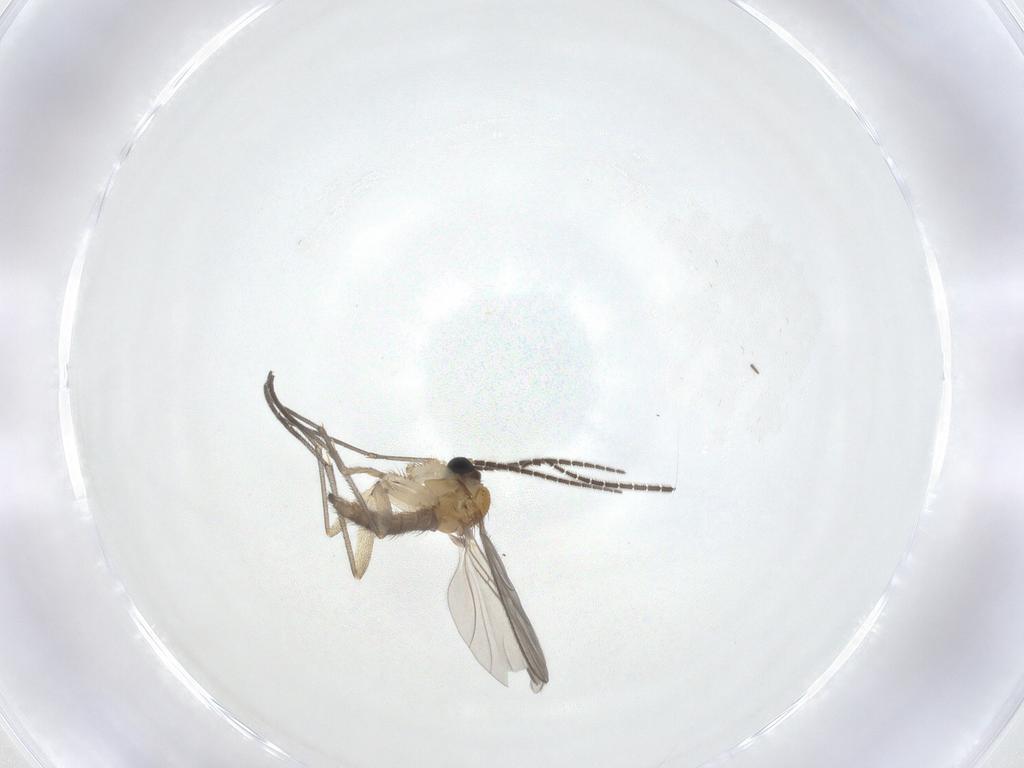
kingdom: Animalia
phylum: Arthropoda
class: Insecta
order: Diptera
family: Sciaridae
